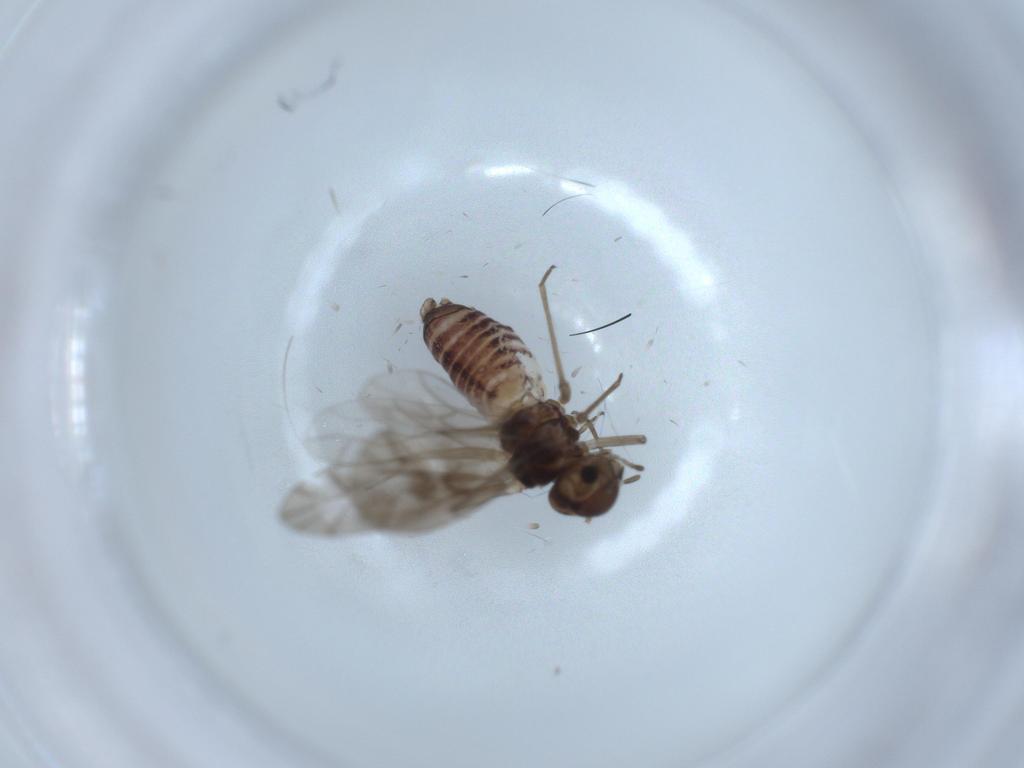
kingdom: Animalia
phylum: Arthropoda
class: Insecta
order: Psocodea
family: Peripsocidae
